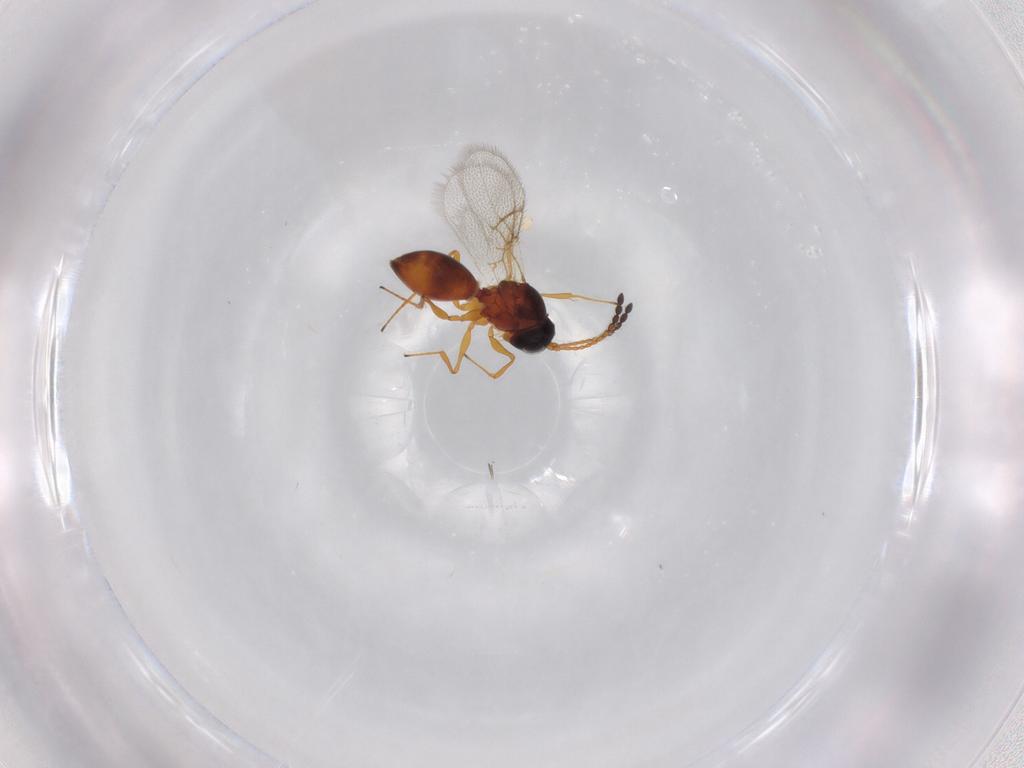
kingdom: Animalia
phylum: Arthropoda
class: Insecta
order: Hymenoptera
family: Figitidae
